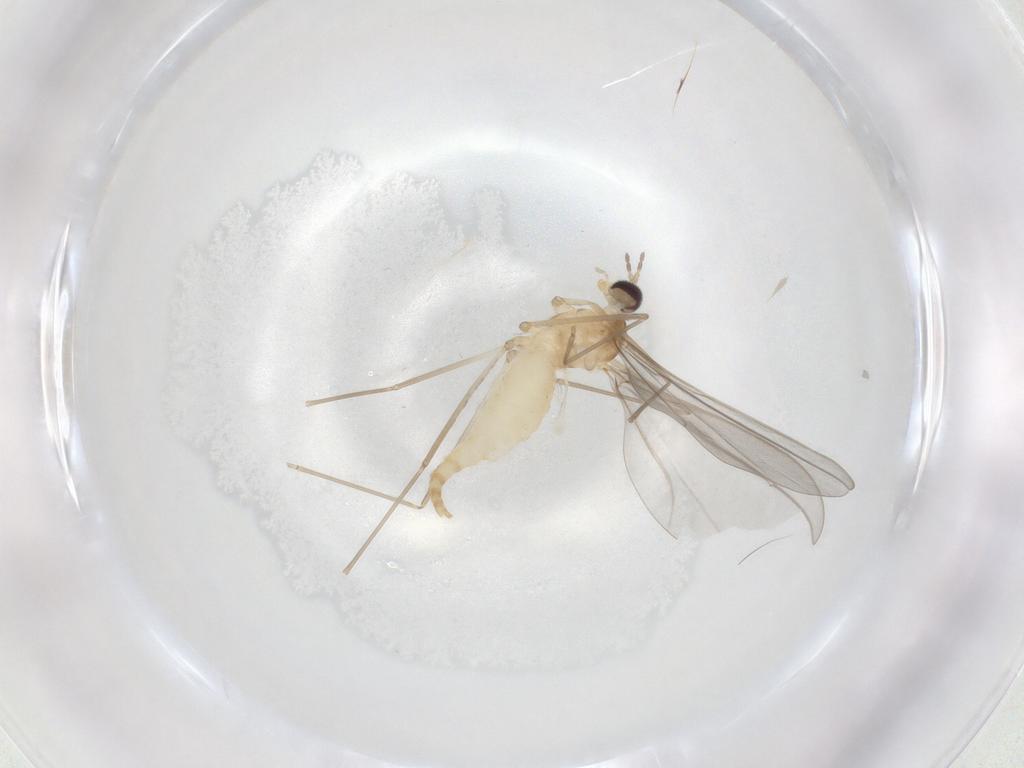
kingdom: Animalia
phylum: Arthropoda
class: Insecta
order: Diptera
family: Cecidomyiidae
